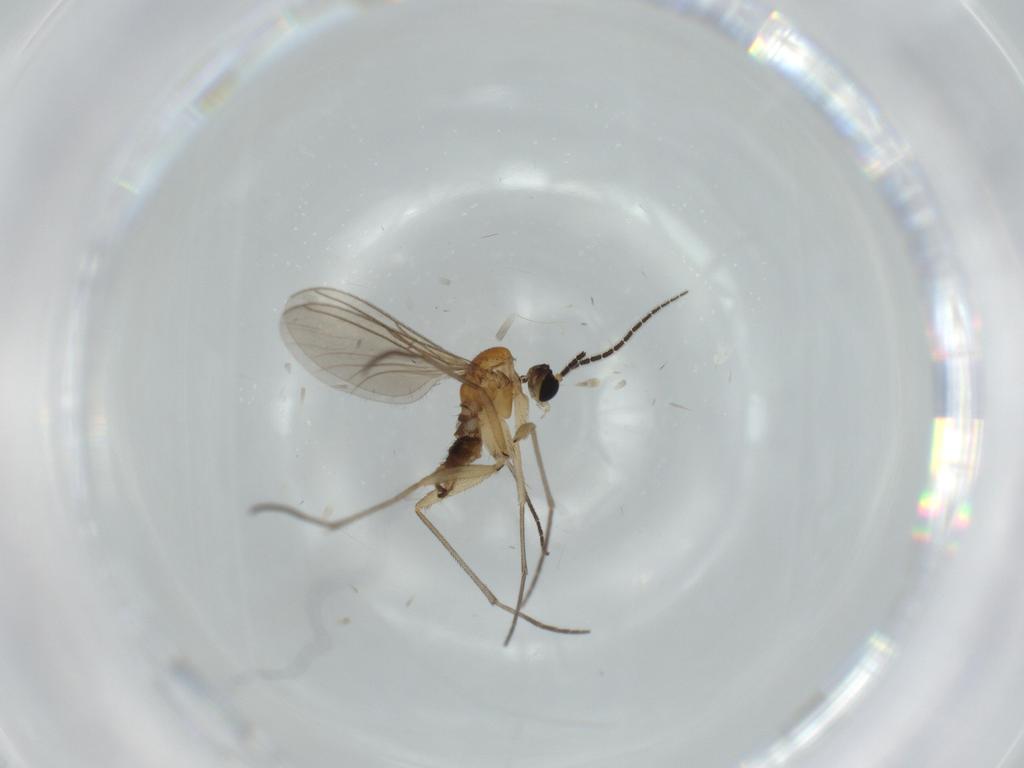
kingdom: Animalia
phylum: Arthropoda
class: Insecta
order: Diptera
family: Sciaridae
